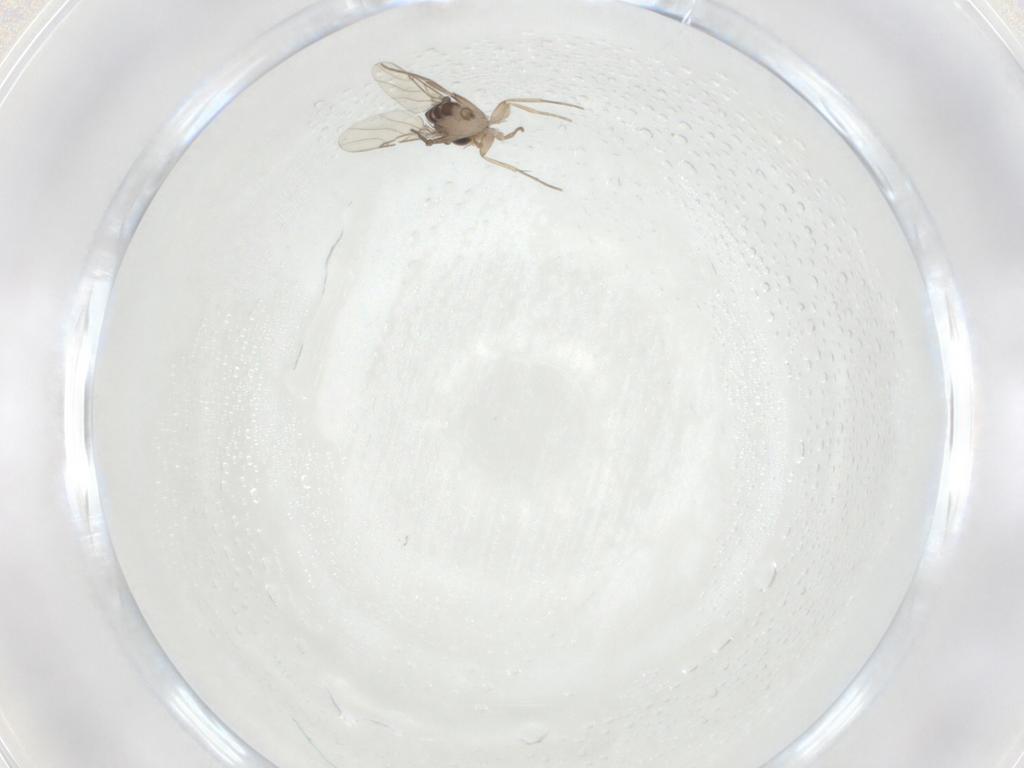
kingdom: Animalia
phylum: Arthropoda
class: Insecta
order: Diptera
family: Phoridae
